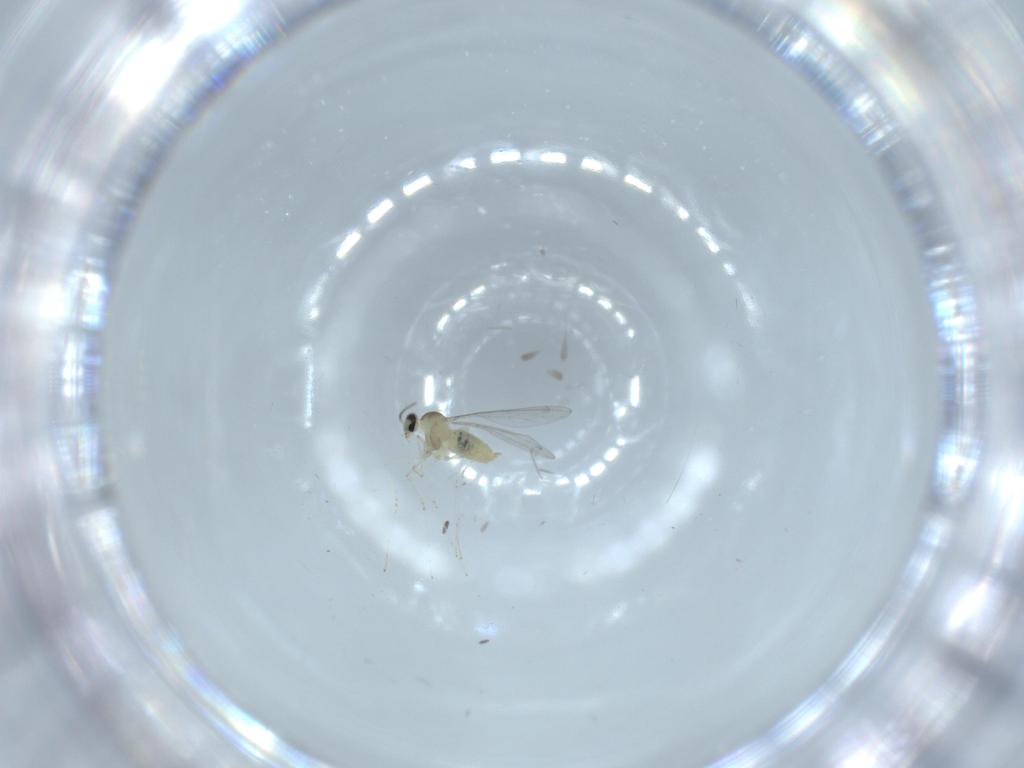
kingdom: Animalia
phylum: Arthropoda
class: Insecta
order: Diptera
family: Cecidomyiidae
